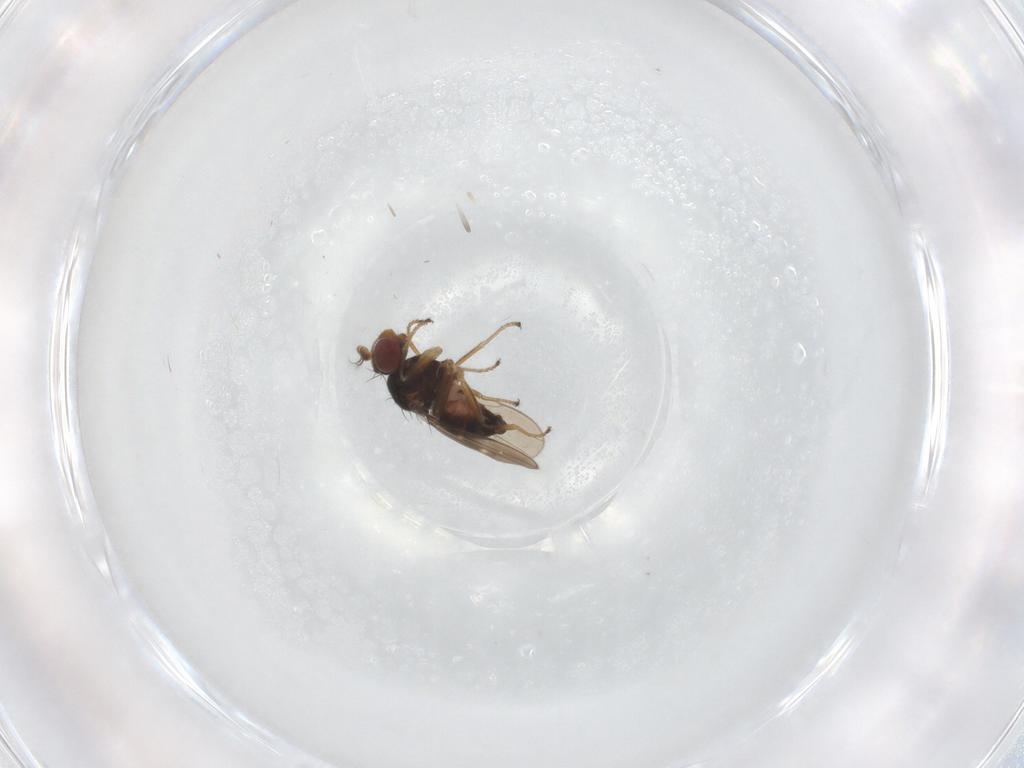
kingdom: Animalia
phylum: Arthropoda
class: Insecta
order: Diptera
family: Ephydridae
